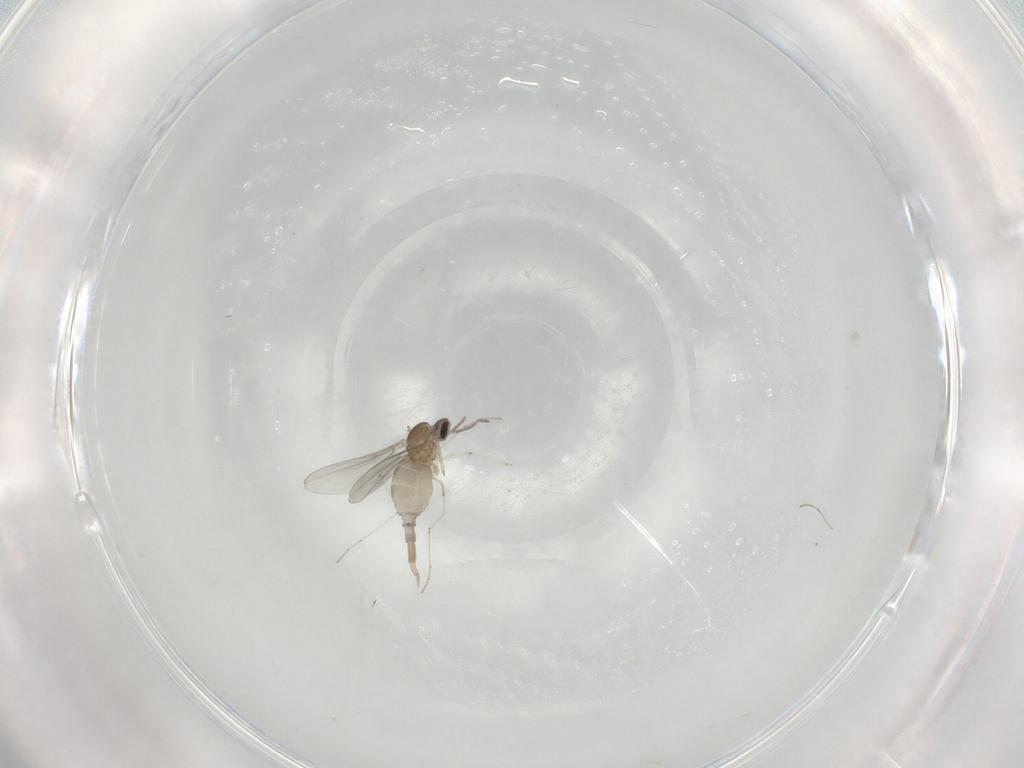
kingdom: Animalia
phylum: Arthropoda
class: Insecta
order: Diptera
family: Cecidomyiidae
